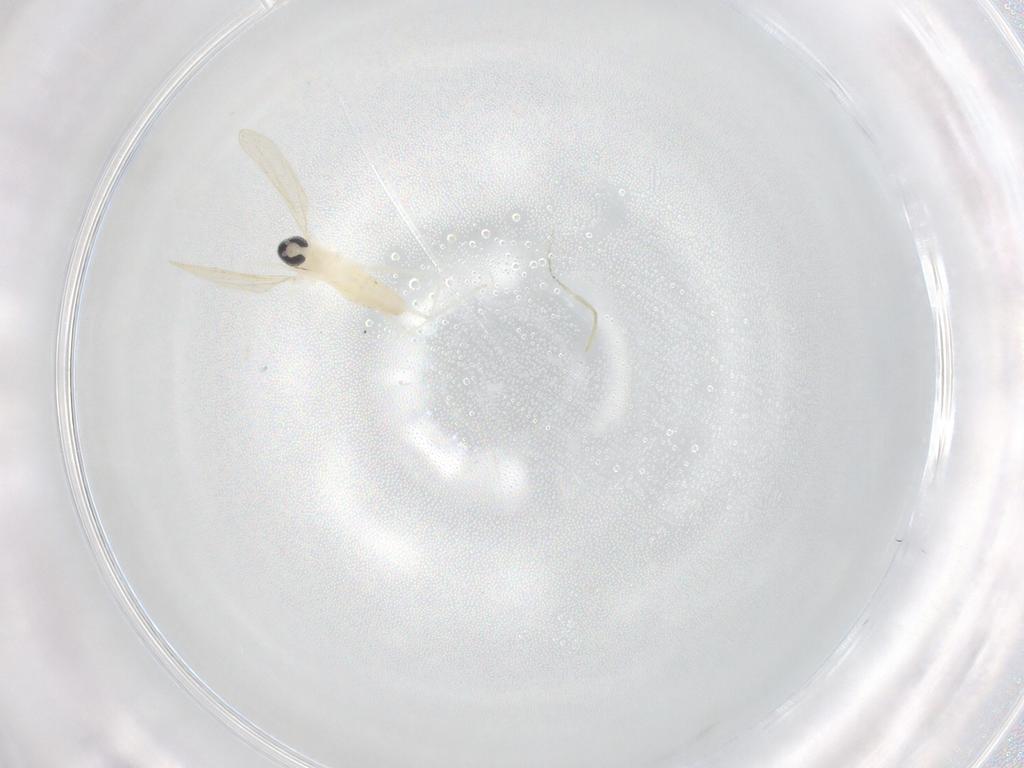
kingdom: Animalia
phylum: Arthropoda
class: Insecta
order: Diptera
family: Cecidomyiidae
